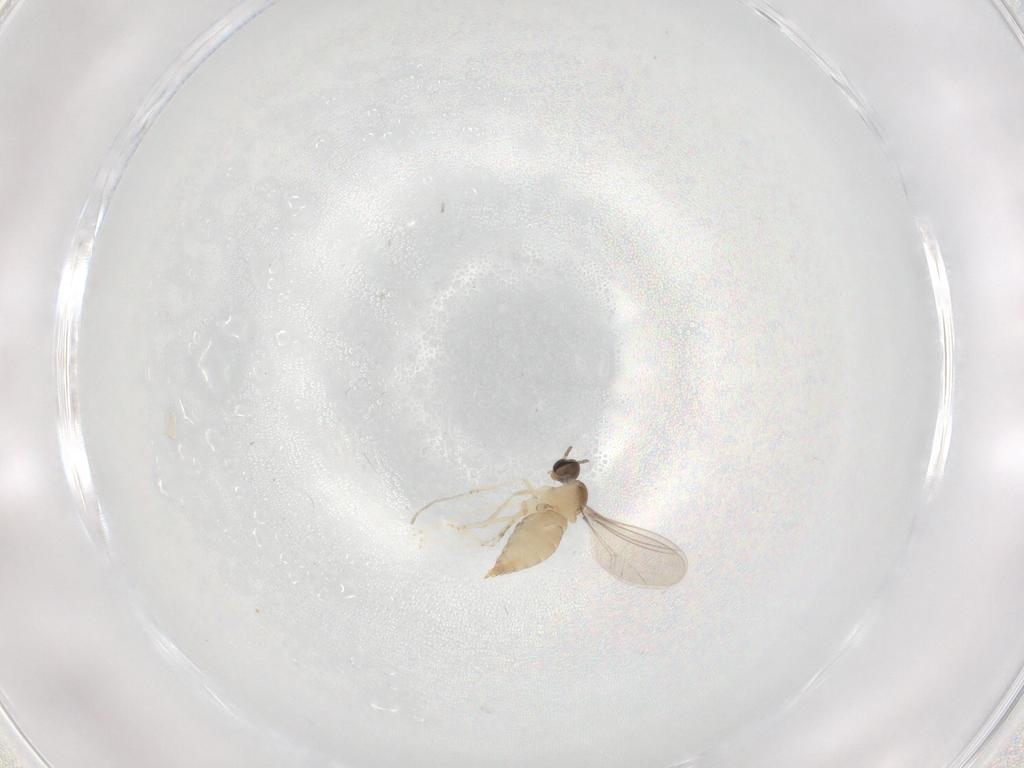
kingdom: Animalia
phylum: Arthropoda
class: Insecta
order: Diptera
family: Cecidomyiidae
